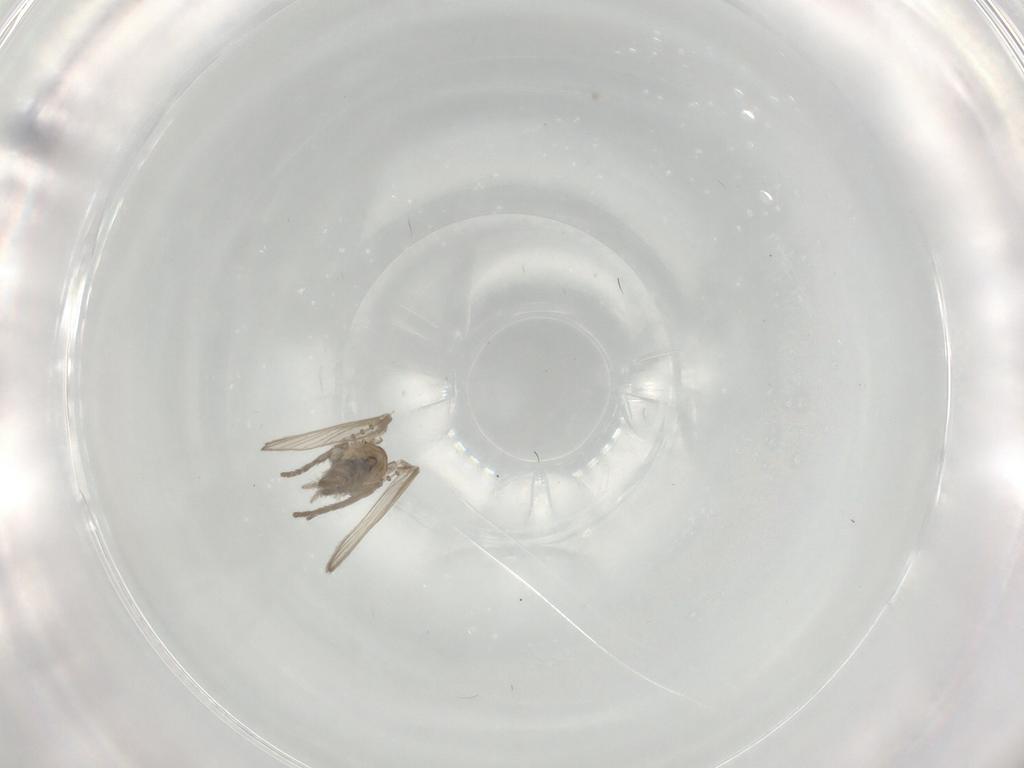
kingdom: Animalia
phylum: Arthropoda
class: Insecta
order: Diptera
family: Psychodidae
